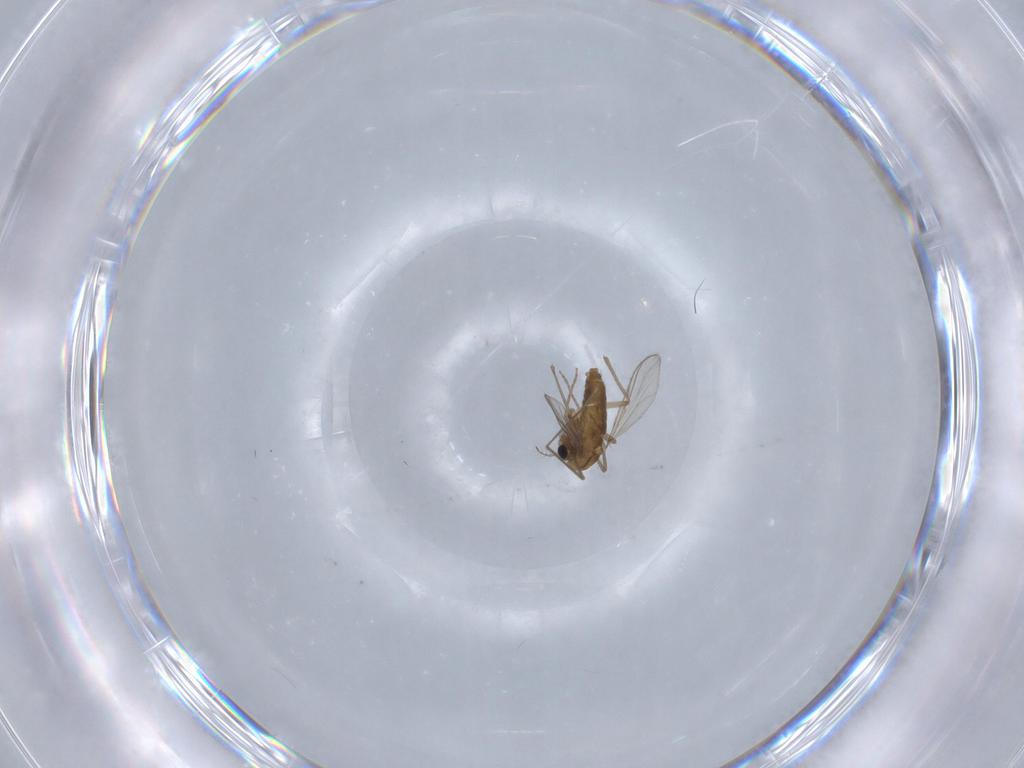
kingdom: Animalia
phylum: Arthropoda
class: Insecta
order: Diptera
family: Chironomidae
